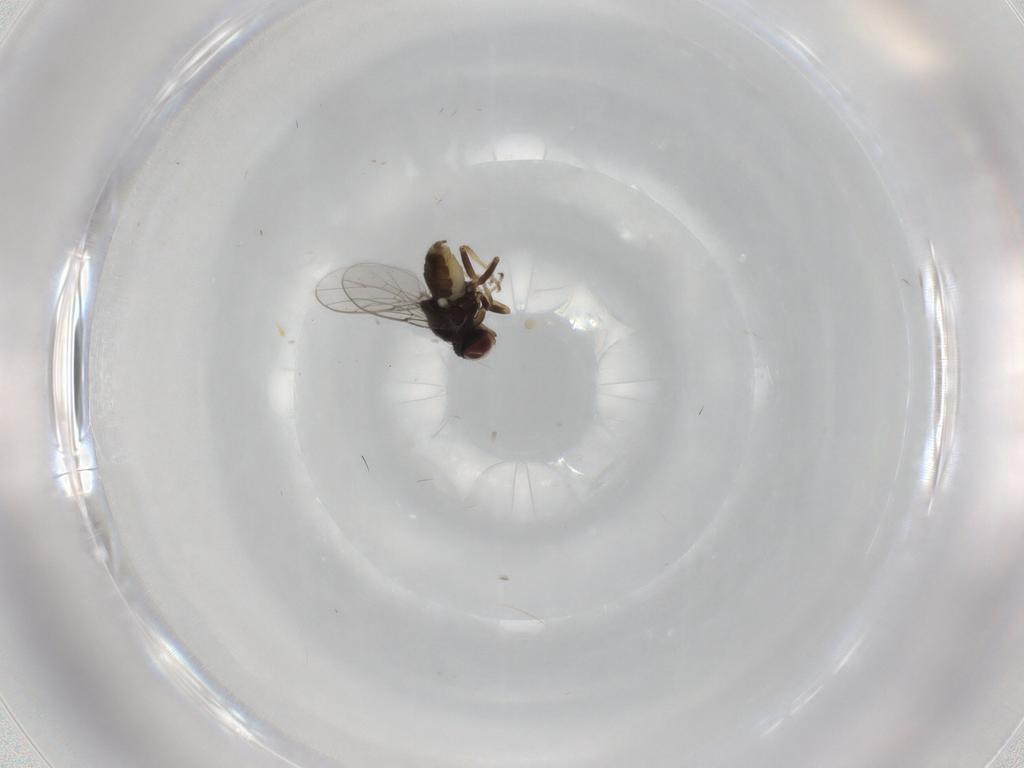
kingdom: Animalia
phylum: Arthropoda
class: Insecta
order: Diptera
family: Chloropidae
